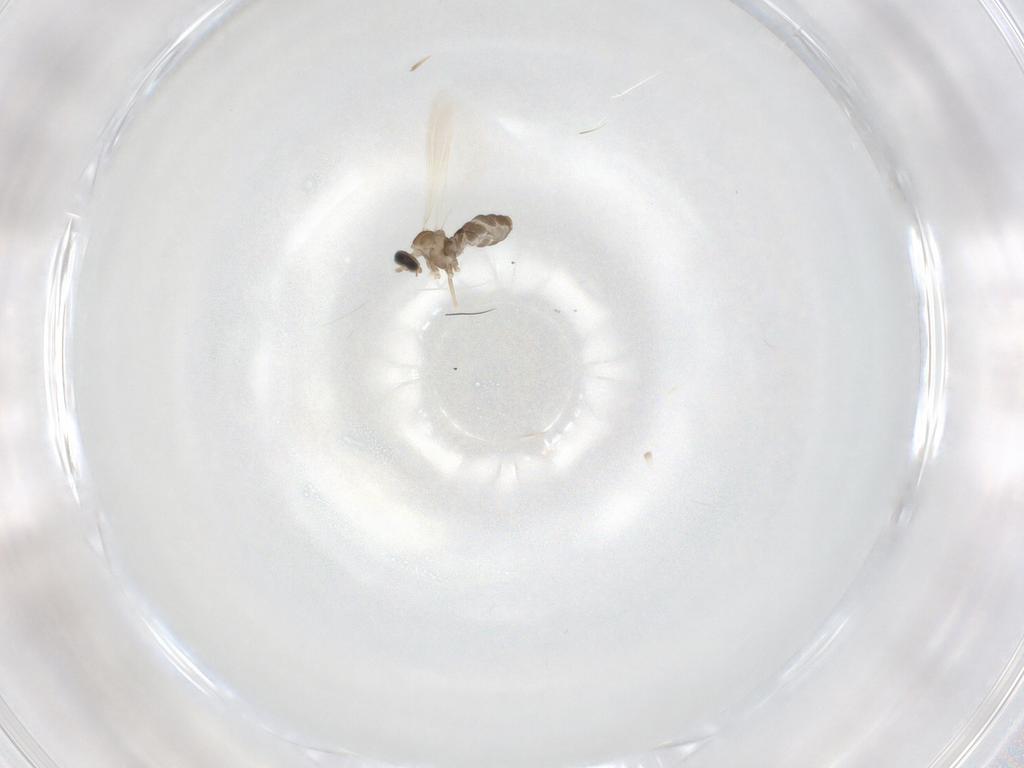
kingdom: Animalia
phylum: Arthropoda
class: Insecta
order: Diptera
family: Cecidomyiidae
